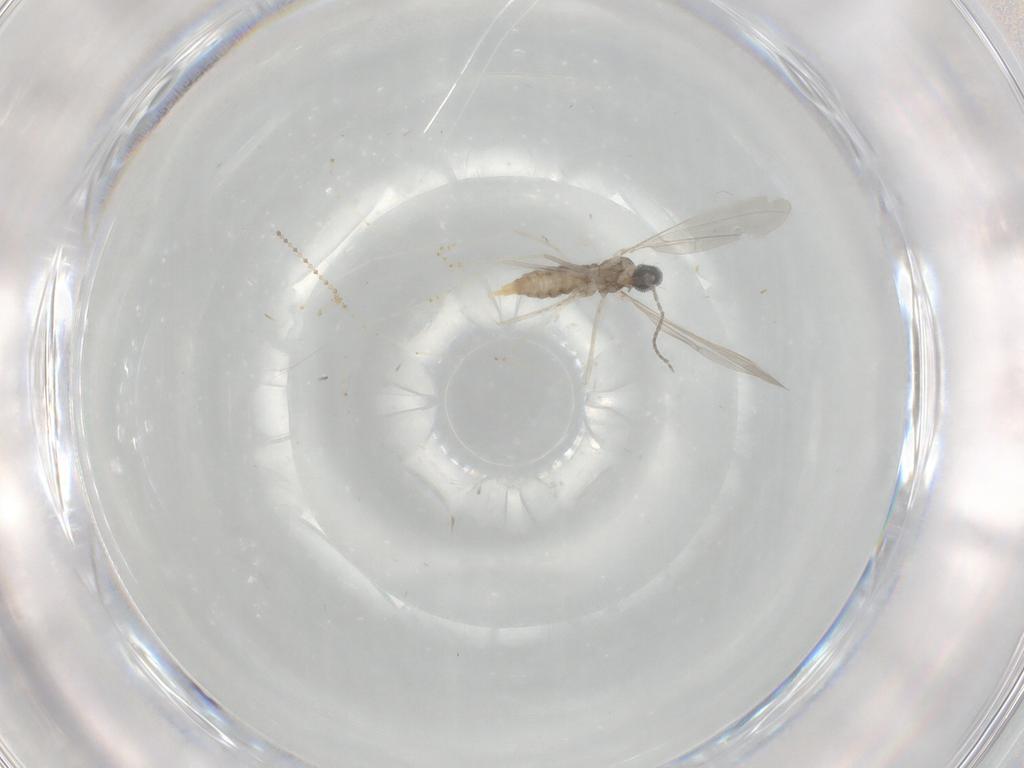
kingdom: Animalia
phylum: Arthropoda
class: Insecta
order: Diptera
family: Cecidomyiidae
